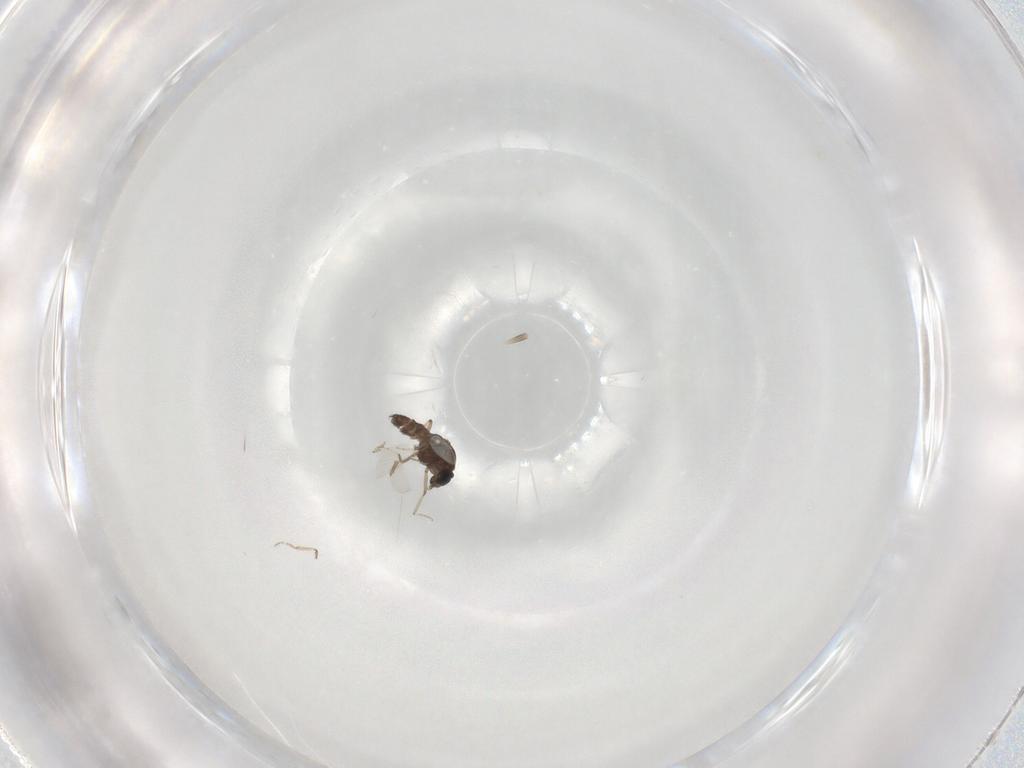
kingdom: Animalia
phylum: Arthropoda
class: Insecta
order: Diptera
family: Ceratopogonidae
